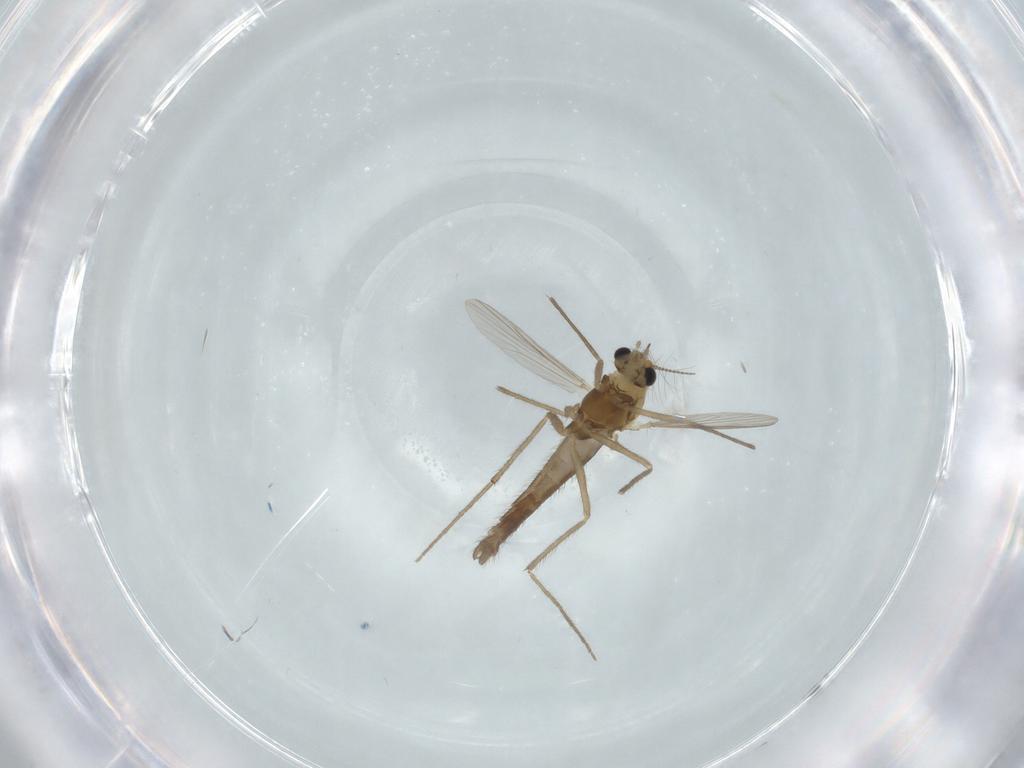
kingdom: Animalia
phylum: Arthropoda
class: Insecta
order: Diptera
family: Chironomidae
